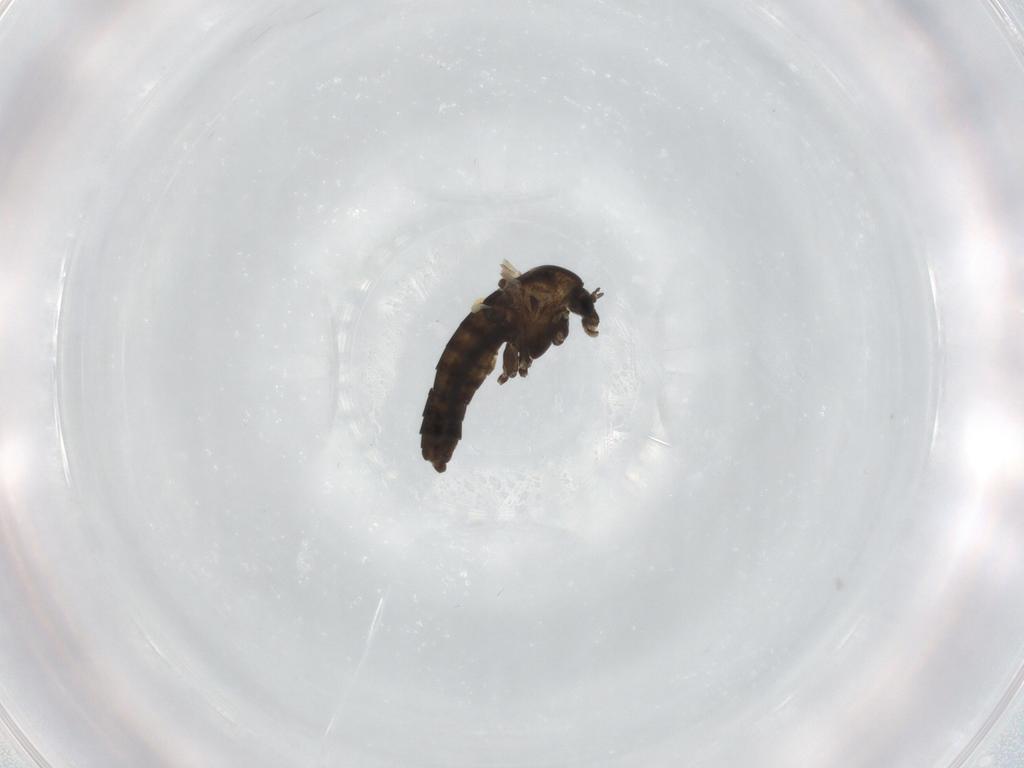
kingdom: Animalia
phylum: Arthropoda
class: Insecta
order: Diptera
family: Chironomidae
